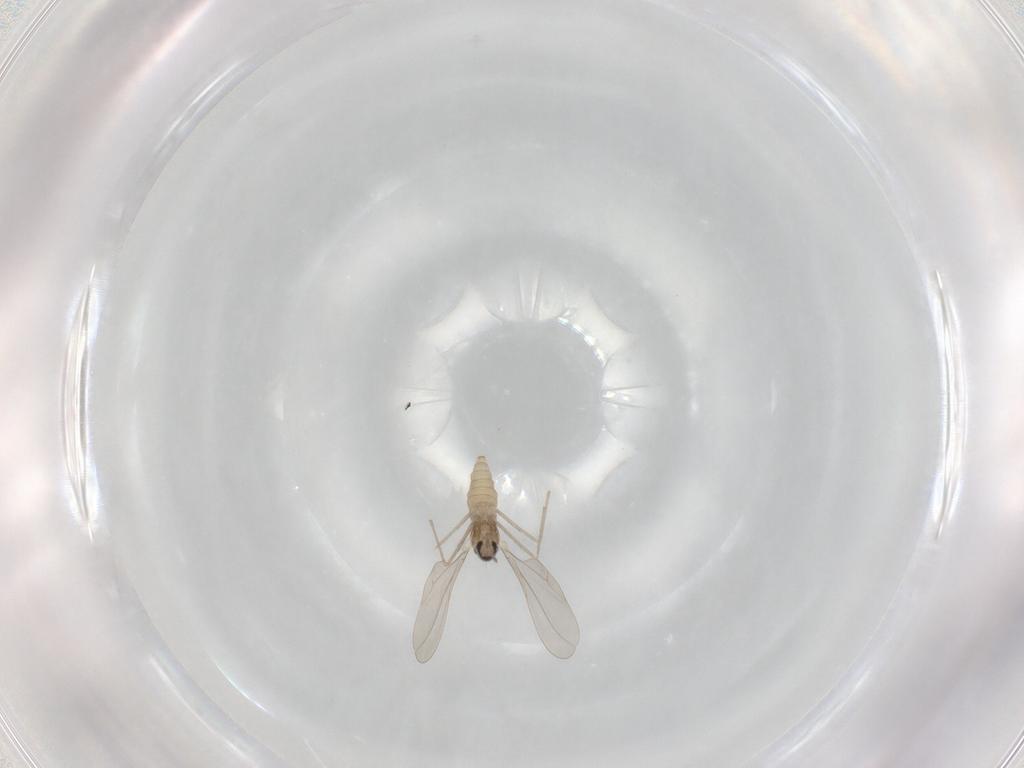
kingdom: Animalia
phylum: Arthropoda
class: Insecta
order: Diptera
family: Cecidomyiidae
